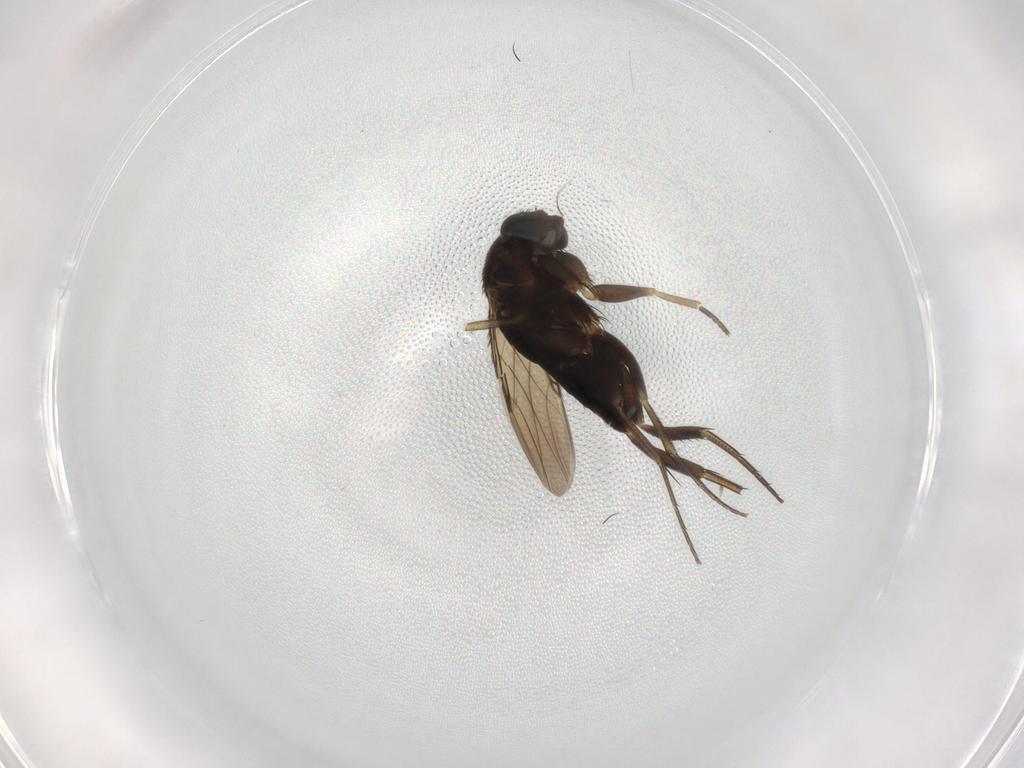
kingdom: Animalia
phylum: Arthropoda
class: Insecta
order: Diptera
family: Phoridae
